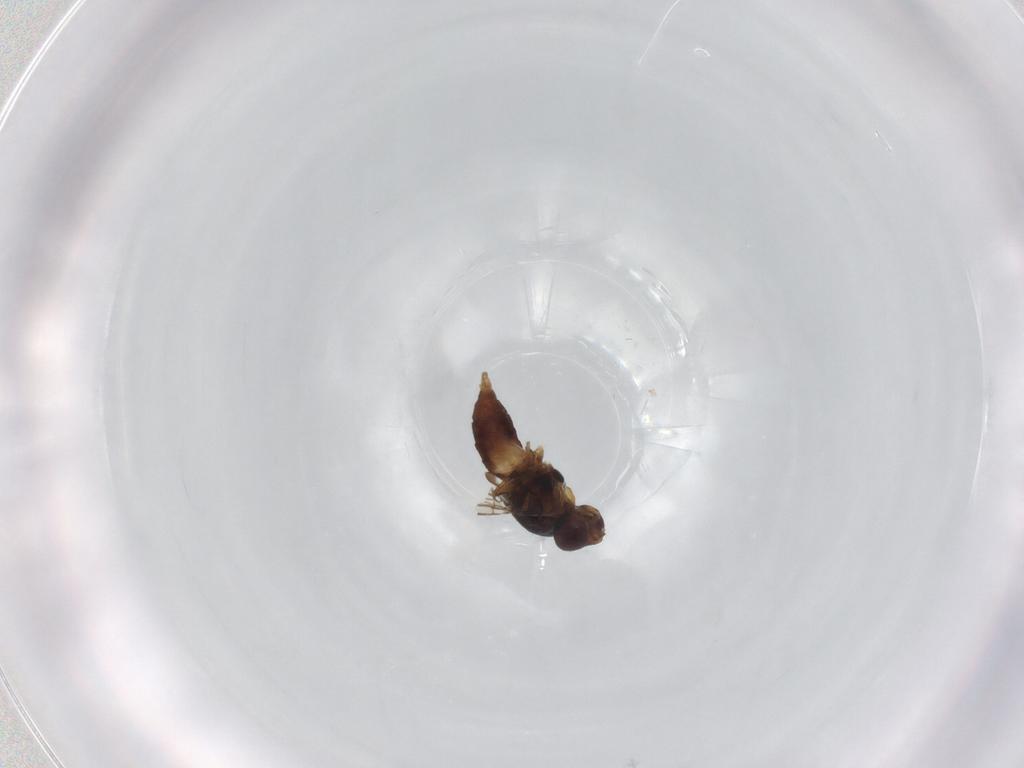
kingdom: Animalia
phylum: Arthropoda
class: Insecta
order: Diptera
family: Chloropidae
